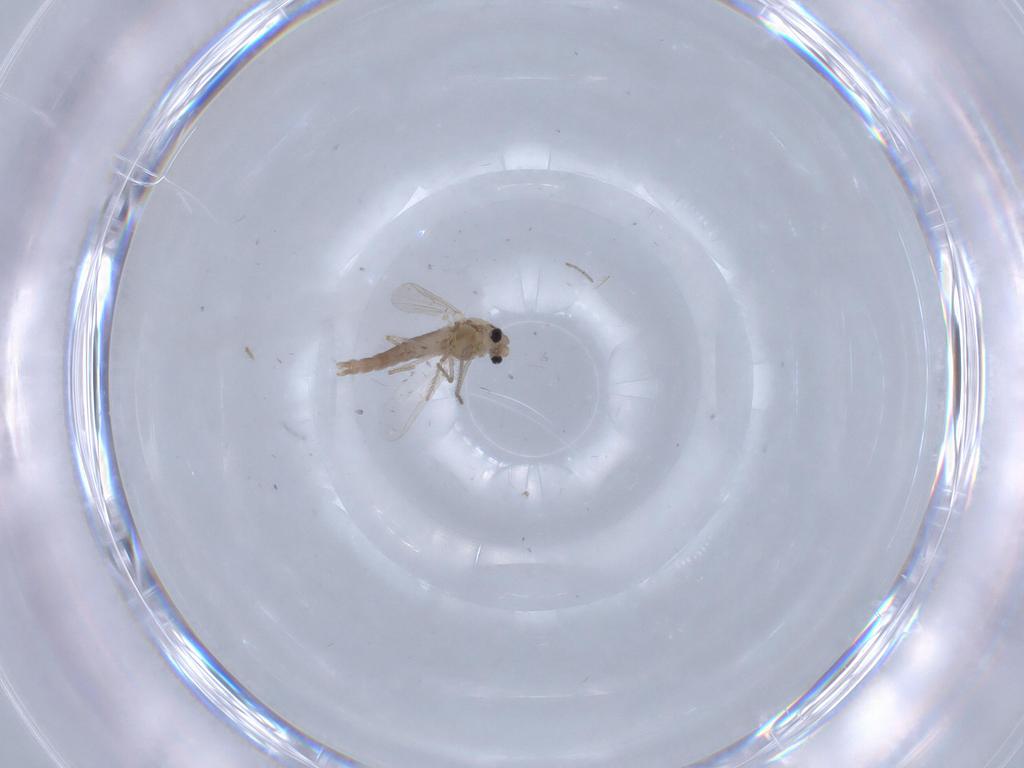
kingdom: Animalia
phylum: Arthropoda
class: Insecta
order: Diptera
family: Chironomidae
